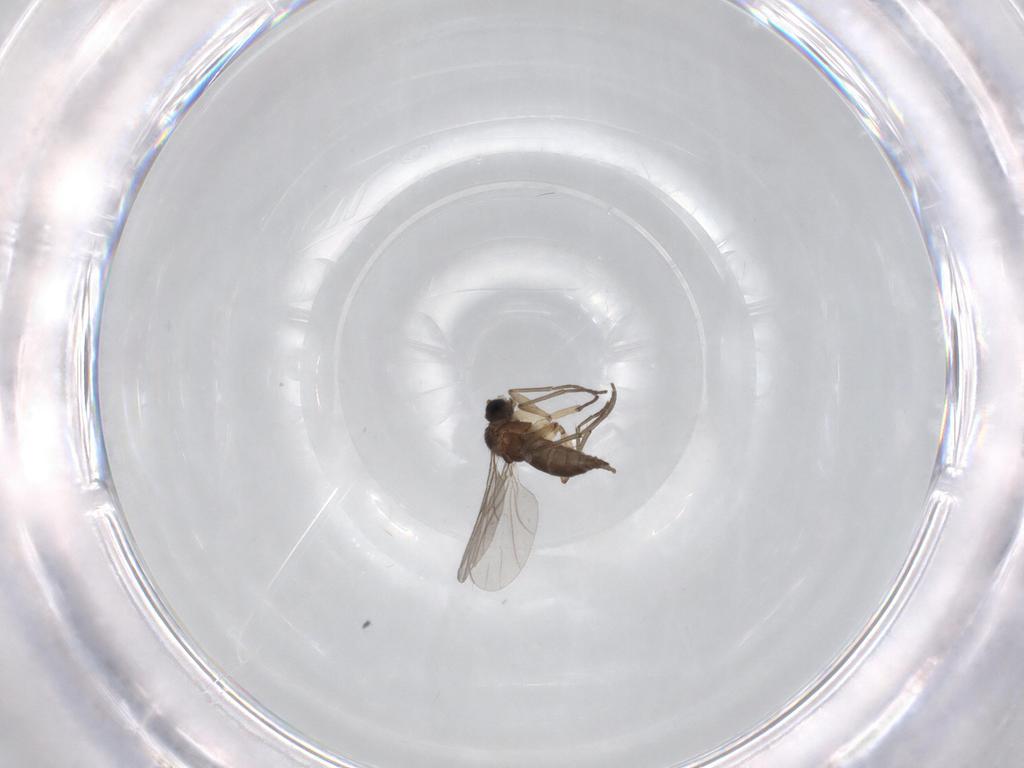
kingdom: Animalia
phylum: Arthropoda
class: Insecta
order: Diptera
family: Sciaridae
